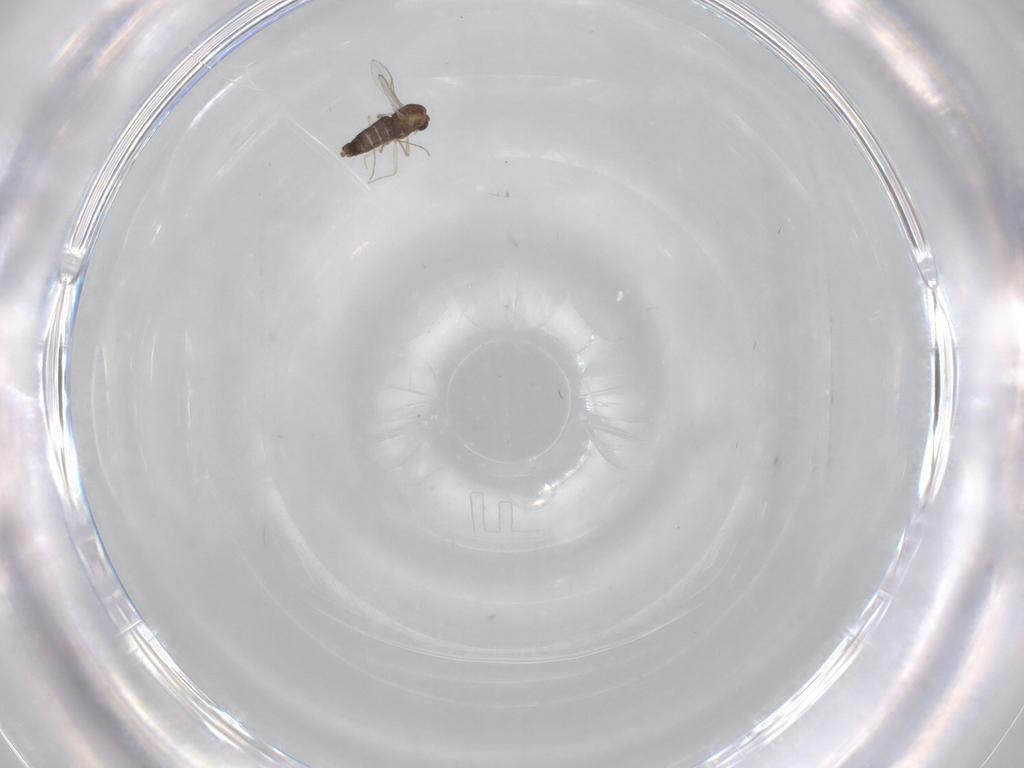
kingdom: Animalia
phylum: Arthropoda
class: Insecta
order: Diptera
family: Chironomidae
